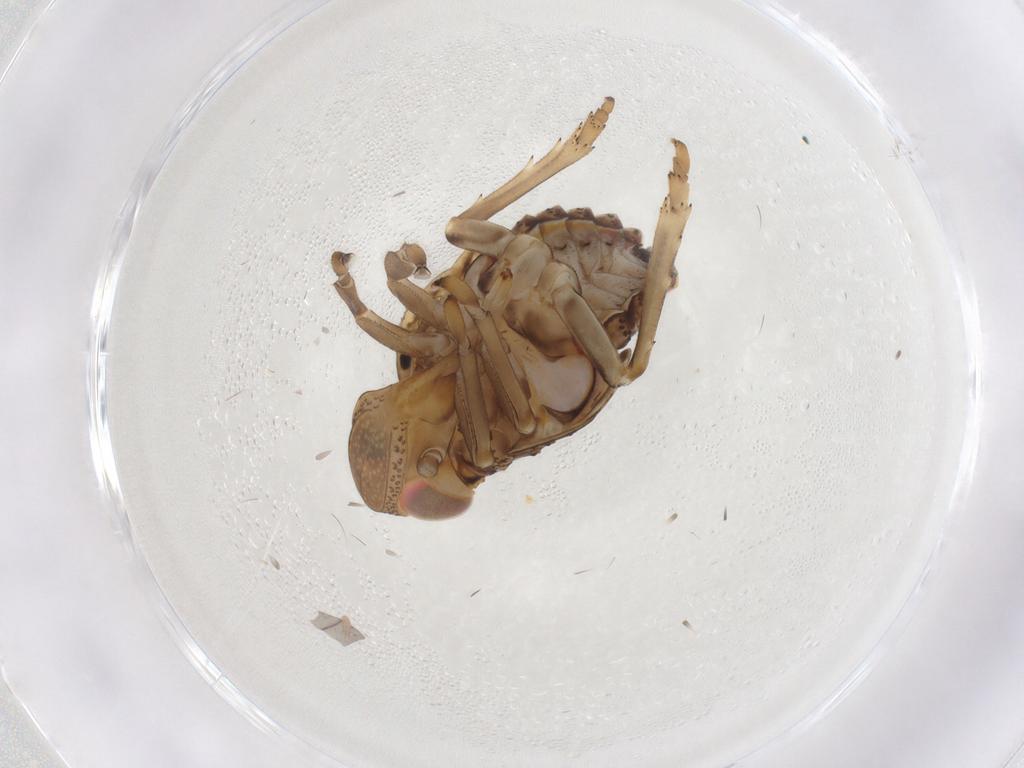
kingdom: Animalia
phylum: Arthropoda
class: Insecta
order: Hemiptera
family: Issidae
